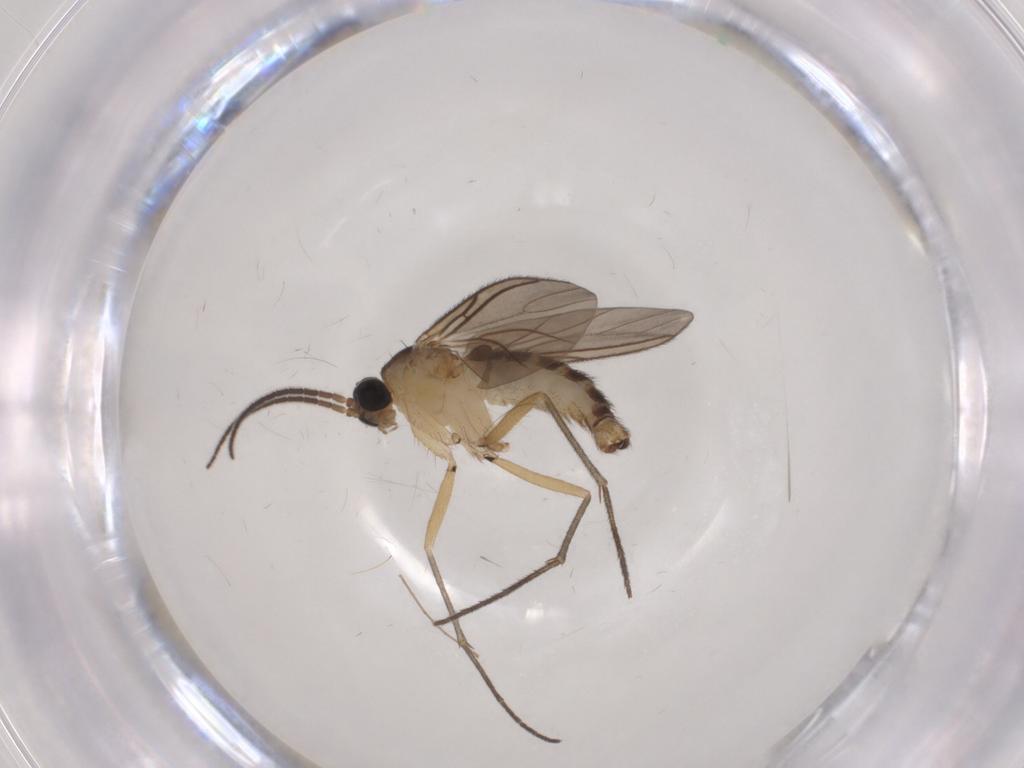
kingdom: Animalia
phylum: Arthropoda
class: Insecta
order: Diptera
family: Sciaridae
